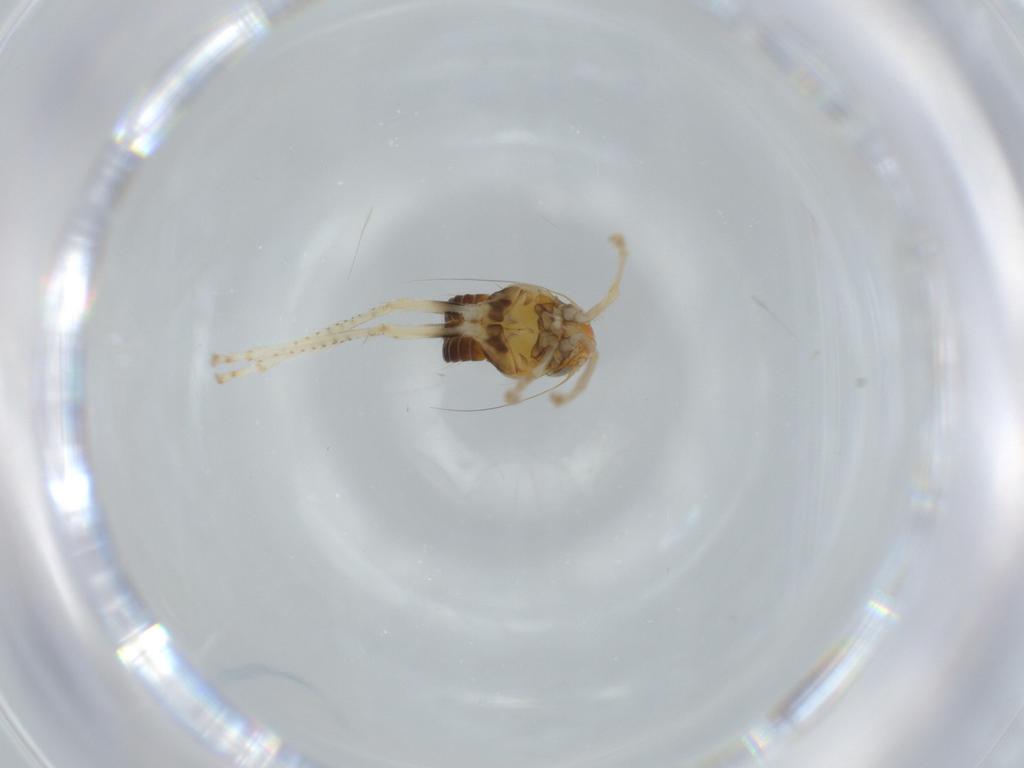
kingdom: Animalia
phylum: Arthropoda
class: Insecta
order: Hemiptera
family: Cicadellidae
